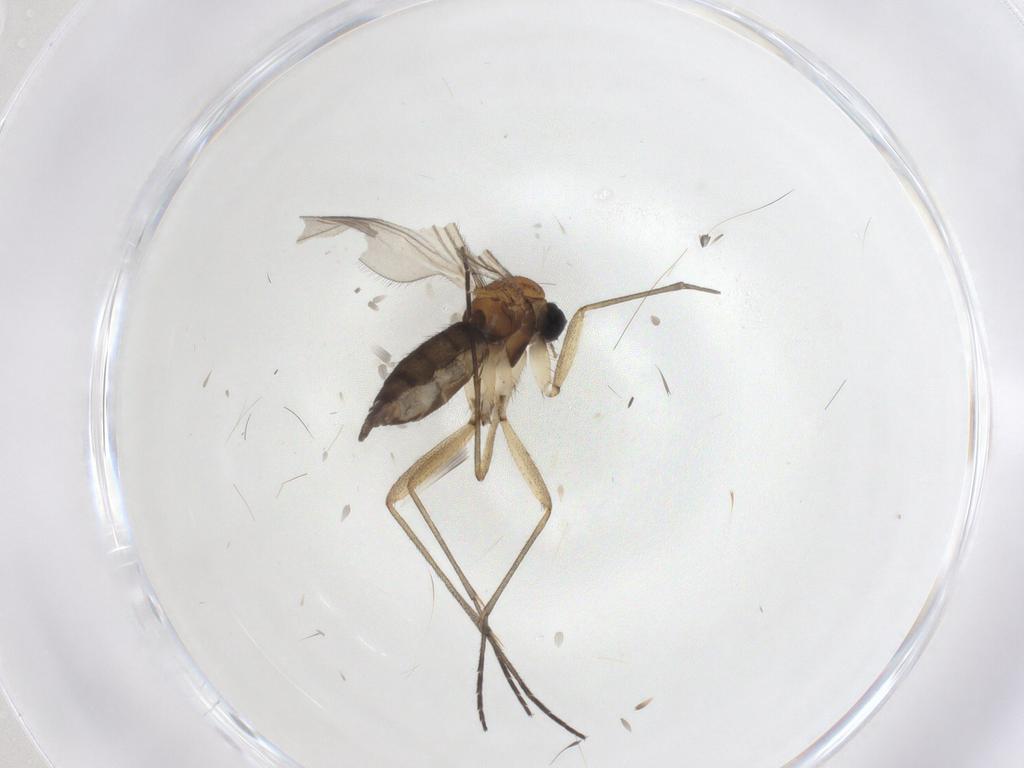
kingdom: Animalia
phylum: Arthropoda
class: Insecta
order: Diptera
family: Sciaridae
